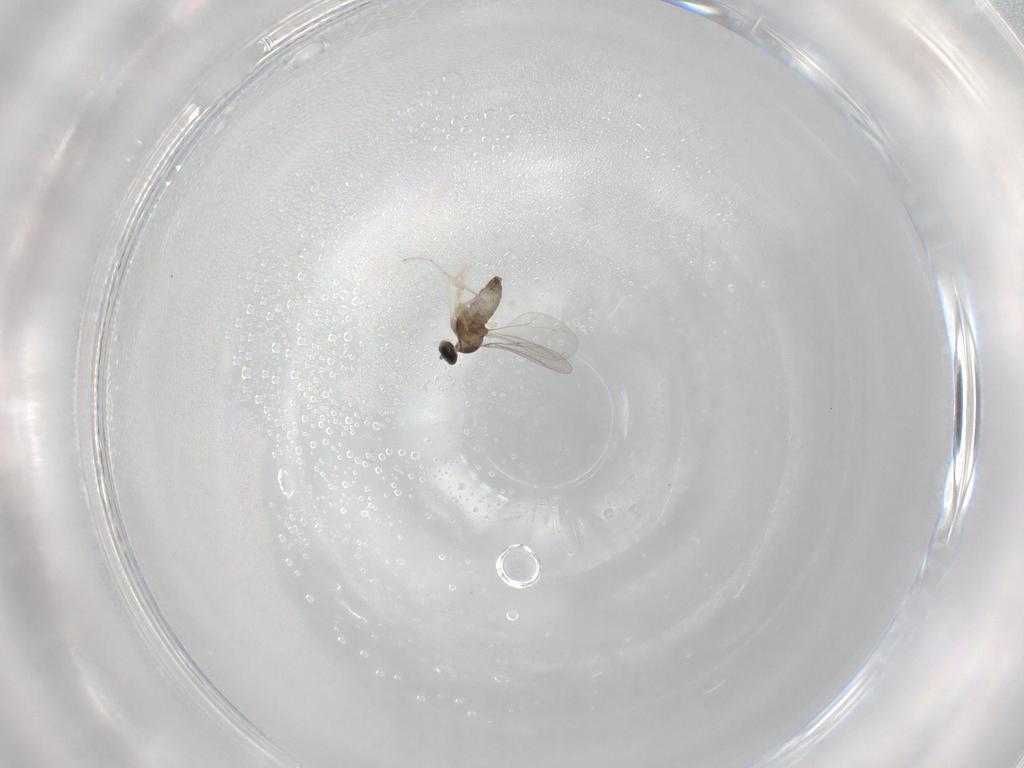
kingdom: Animalia
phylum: Arthropoda
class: Insecta
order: Diptera
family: Cecidomyiidae
